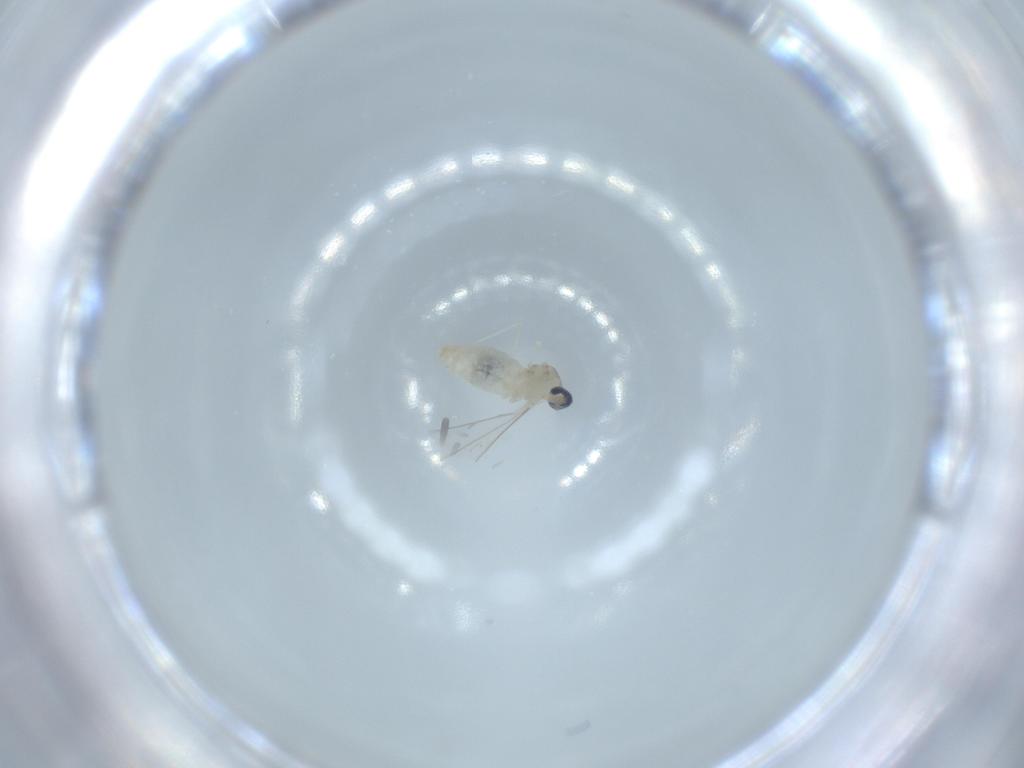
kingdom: Animalia
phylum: Arthropoda
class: Insecta
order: Diptera
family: Cecidomyiidae
